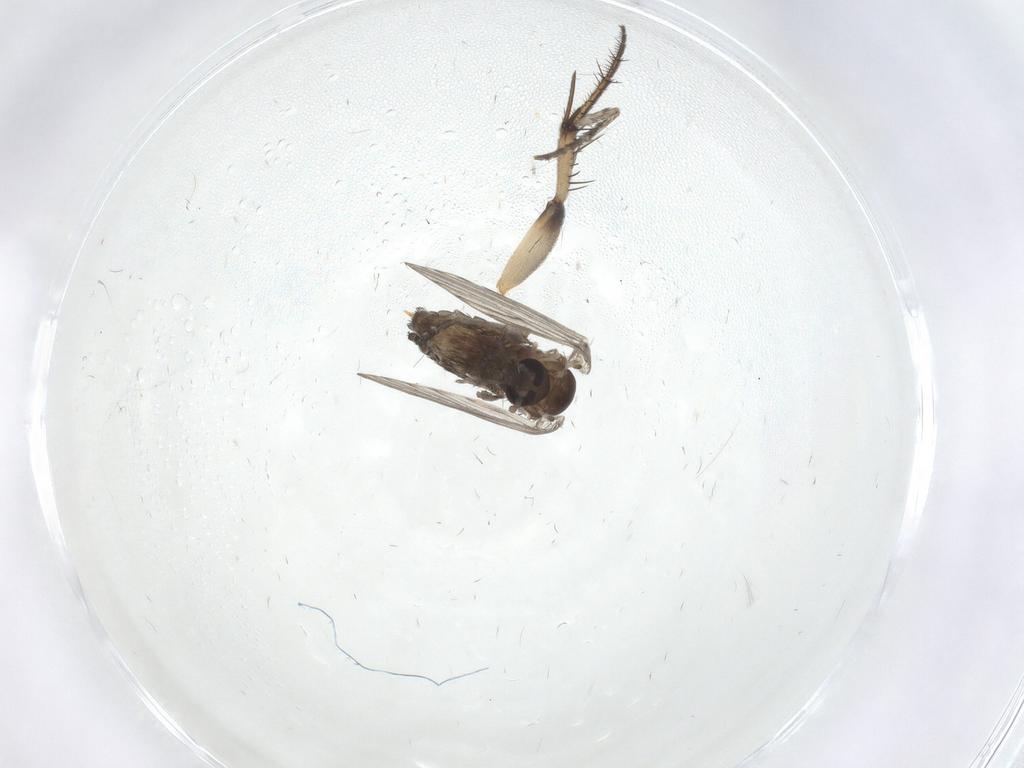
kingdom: Animalia
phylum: Arthropoda
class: Insecta
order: Diptera
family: Psychodidae
